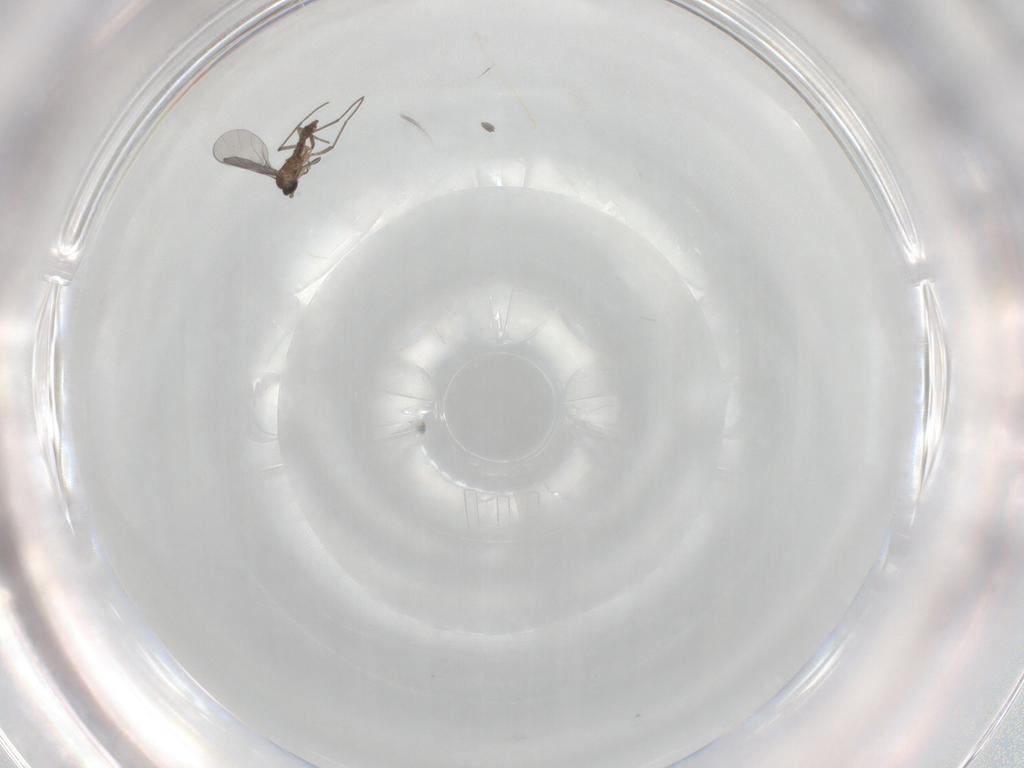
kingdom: Animalia
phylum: Arthropoda
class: Insecta
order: Diptera
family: Sciaridae
